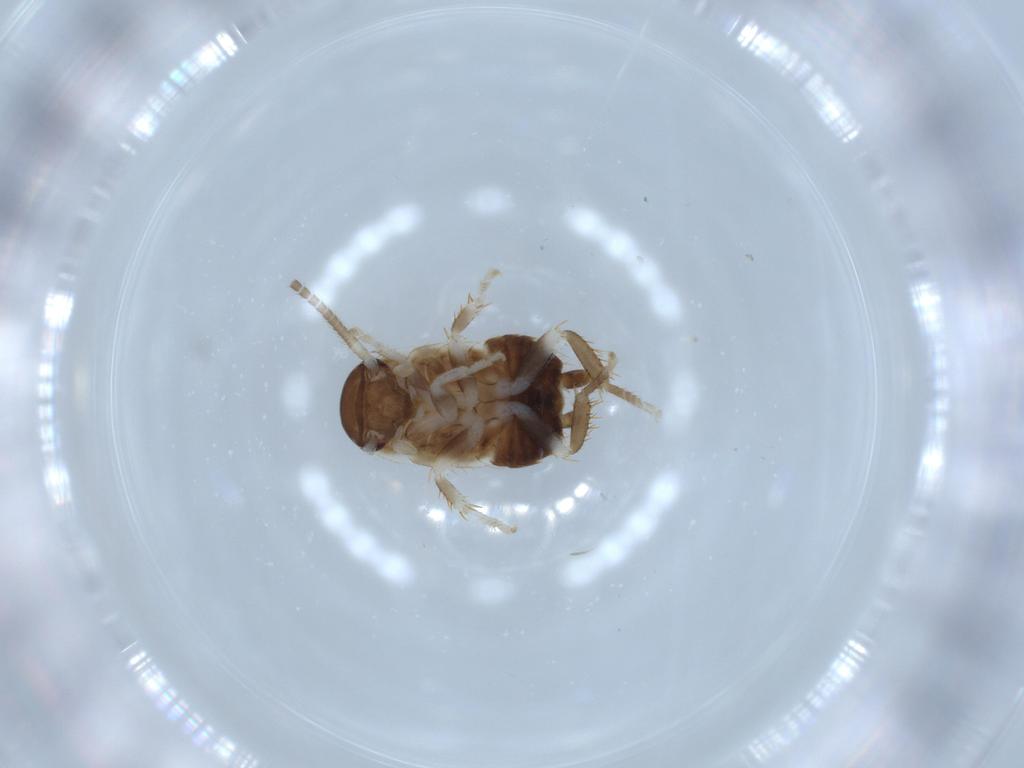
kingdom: Animalia
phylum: Arthropoda
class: Insecta
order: Blattodea
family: Ectobiidae
